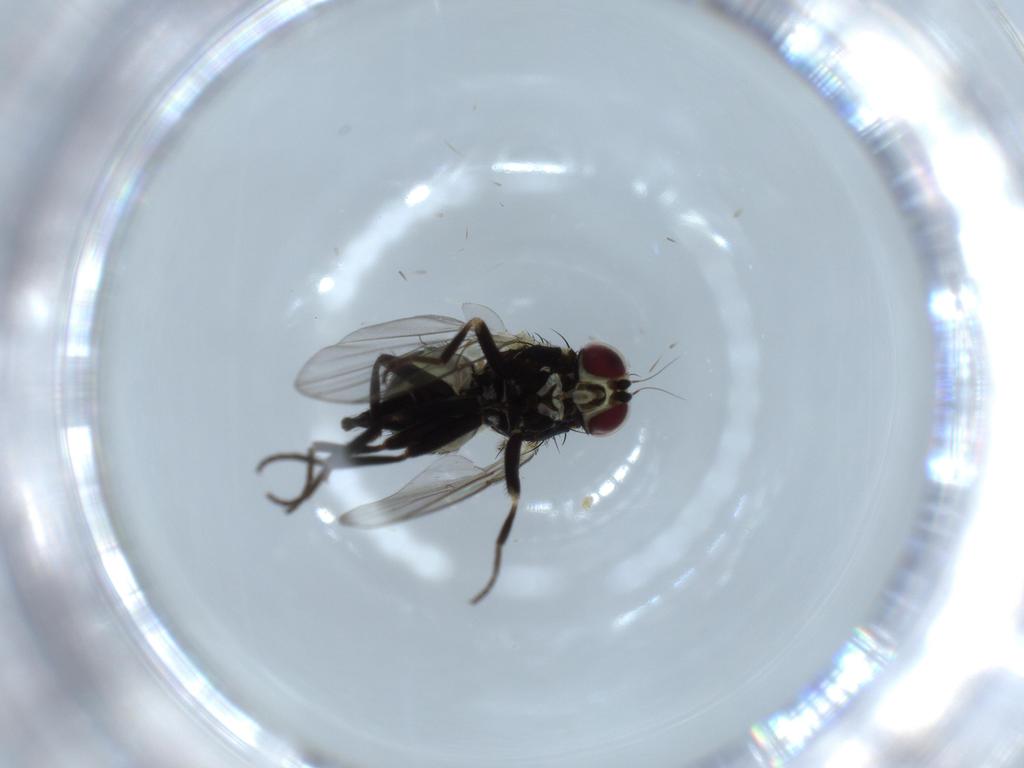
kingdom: Animalia
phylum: Arthropoda
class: Insecta
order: Diptera
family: Agromyzidae
